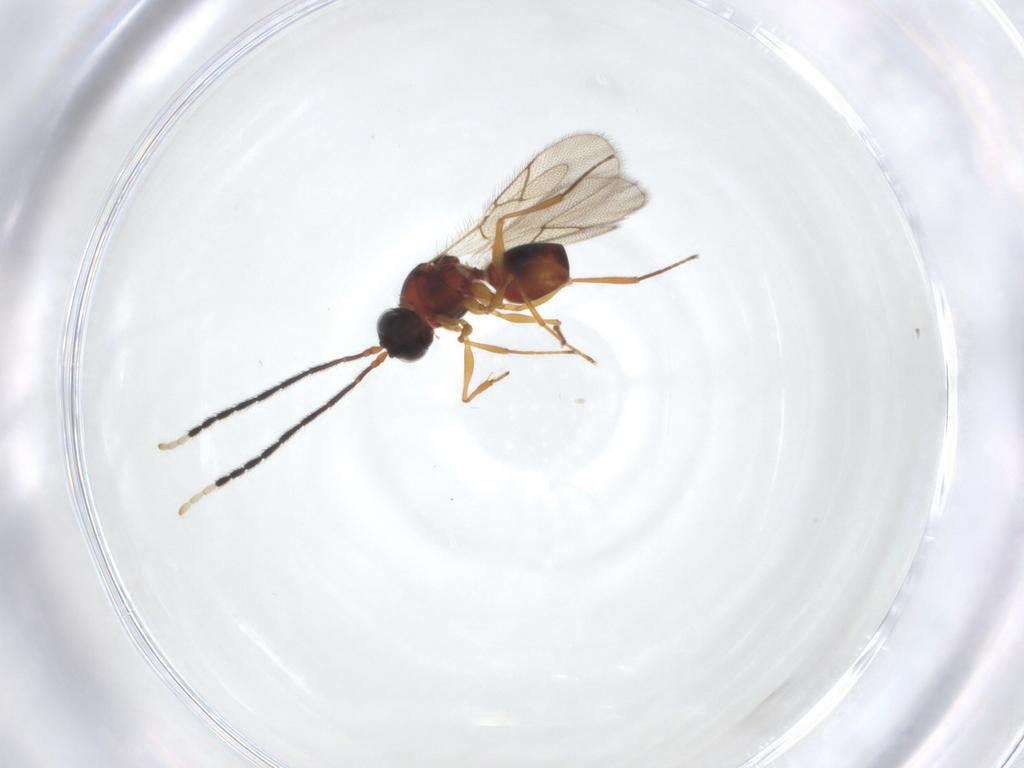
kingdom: Animalia
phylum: Arthropoda
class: Insecta
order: Hymenoptera
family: Figitidae
